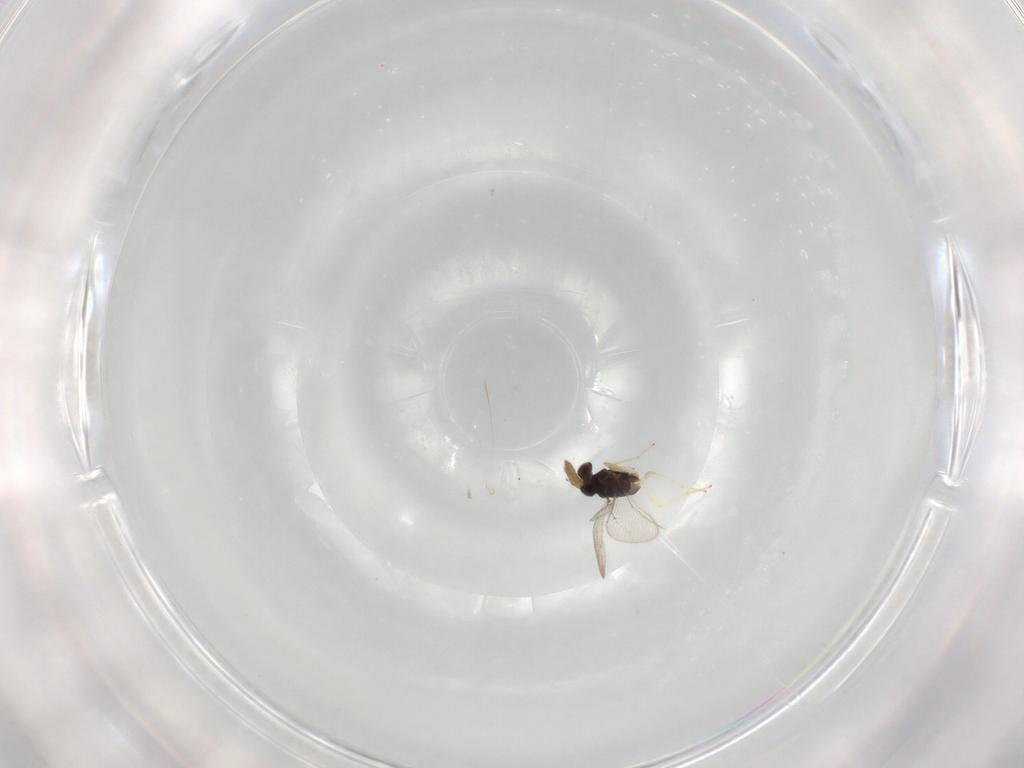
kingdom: Animalia
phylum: Arthropoda
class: Insecta
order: Hymenoptera
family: Eulophidae
